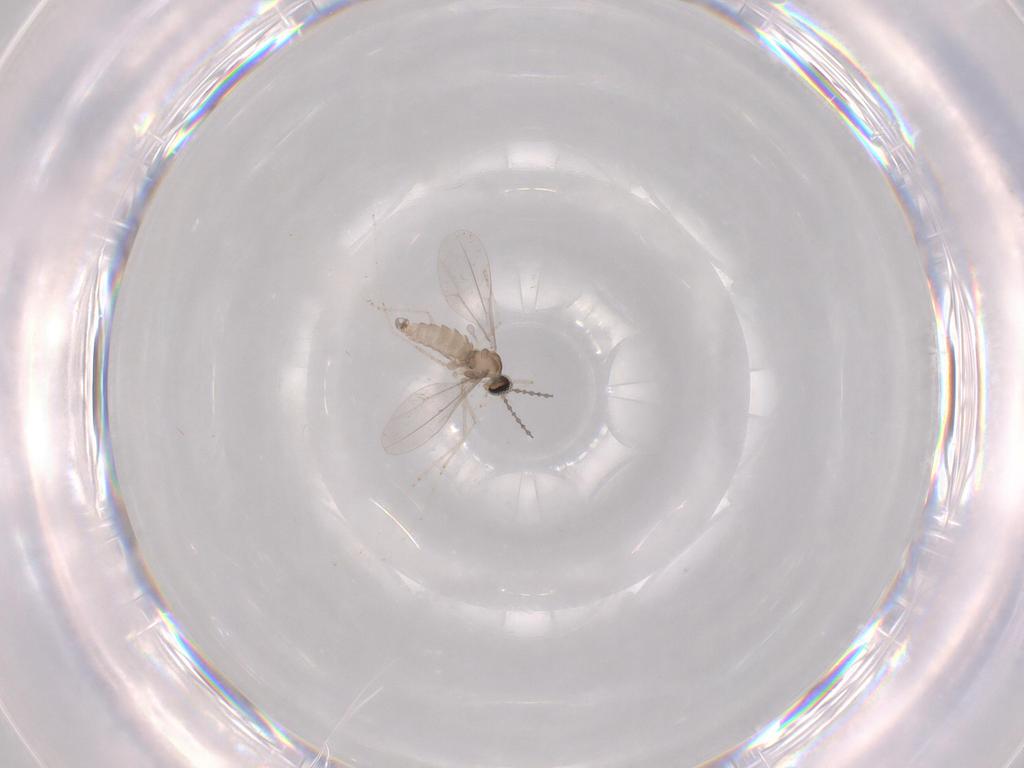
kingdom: Animalia
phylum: Arthropoda
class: Insecta
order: Diptera
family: Cecidomyiidae
